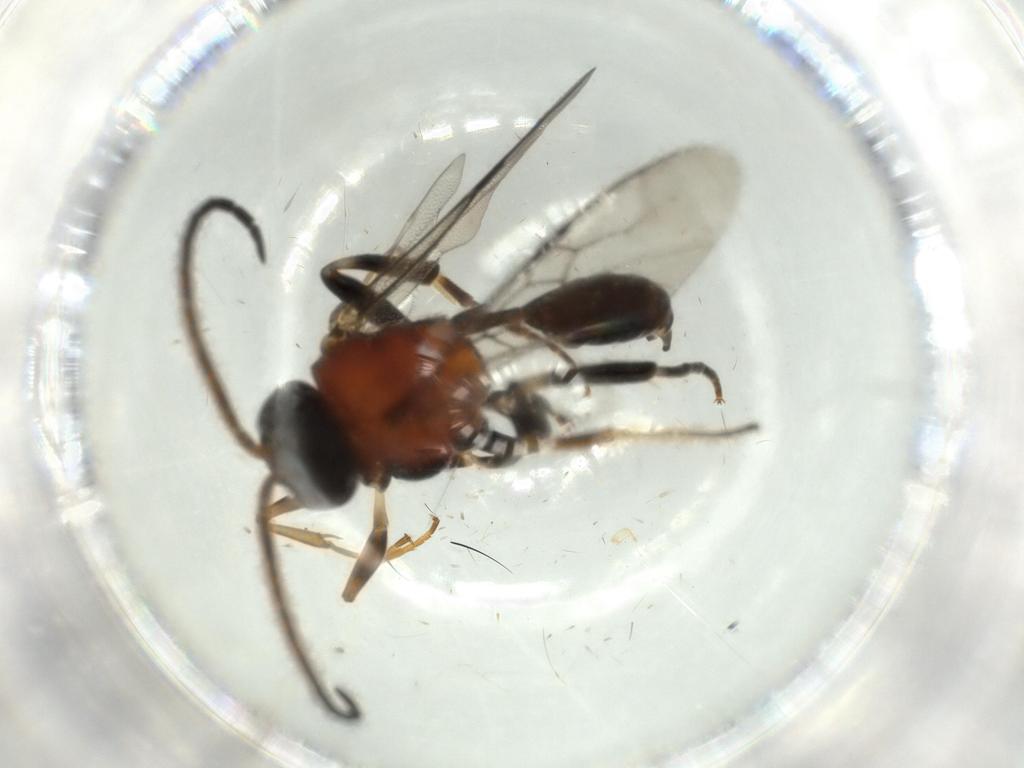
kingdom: Animalia
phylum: Arthropoda
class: Insecta
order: Hymenoptera
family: Evaniidae
